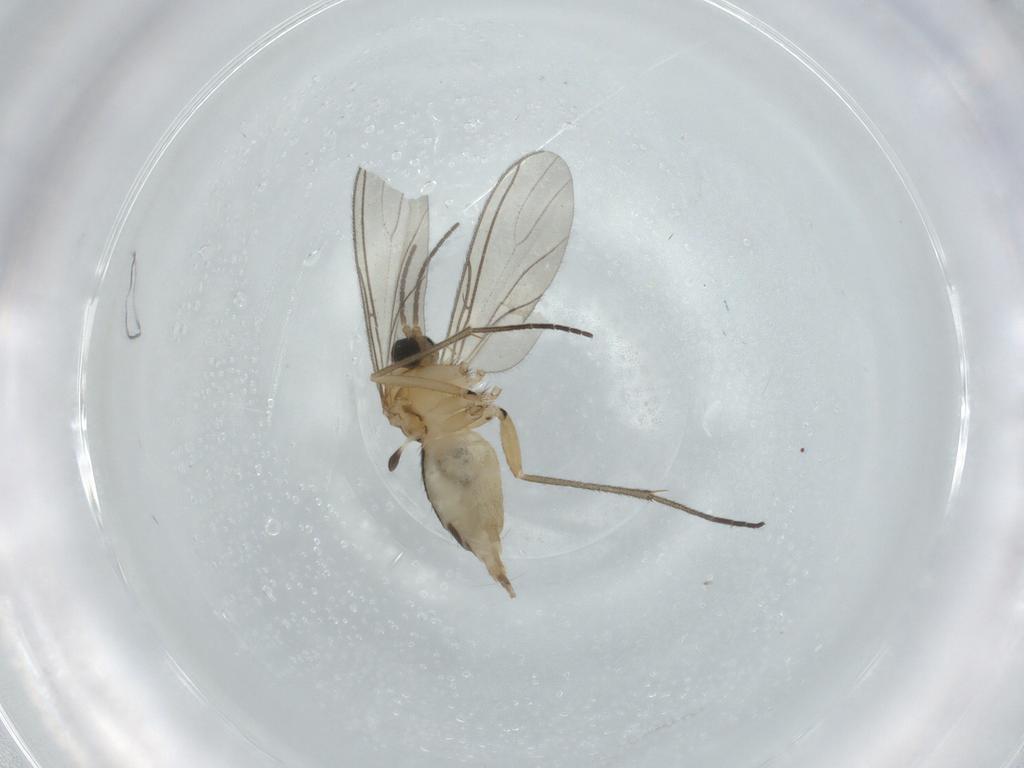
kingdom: Animalia
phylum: Arthropoda
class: Insecta
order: Diptera
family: Sciaridae
